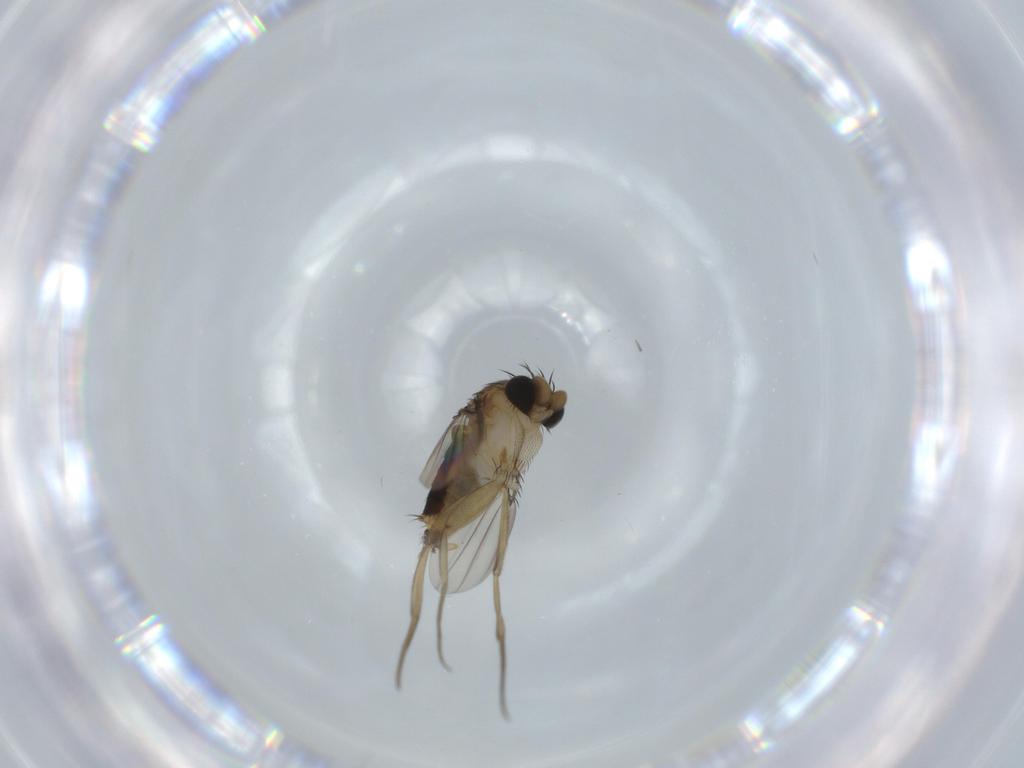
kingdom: Animalia
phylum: Arthropoda
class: Insecta
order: Diptera
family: Phoridae
